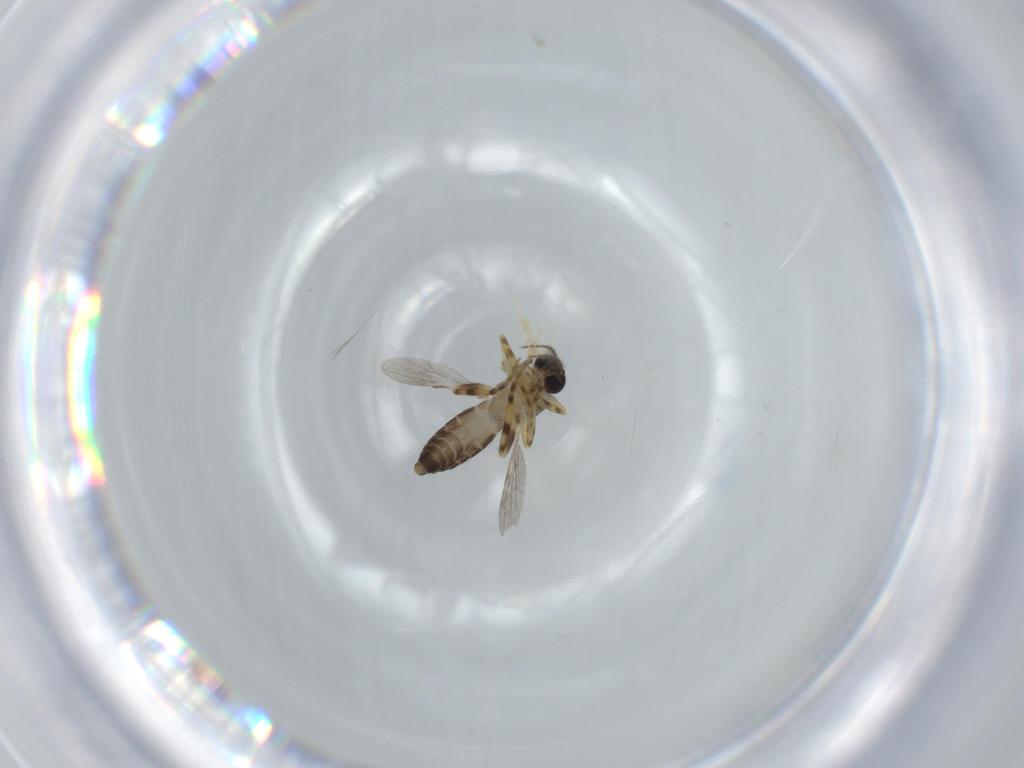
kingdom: Animalia
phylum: Arthropoda
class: Insecta
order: Diptera
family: Ceratopogonidae
